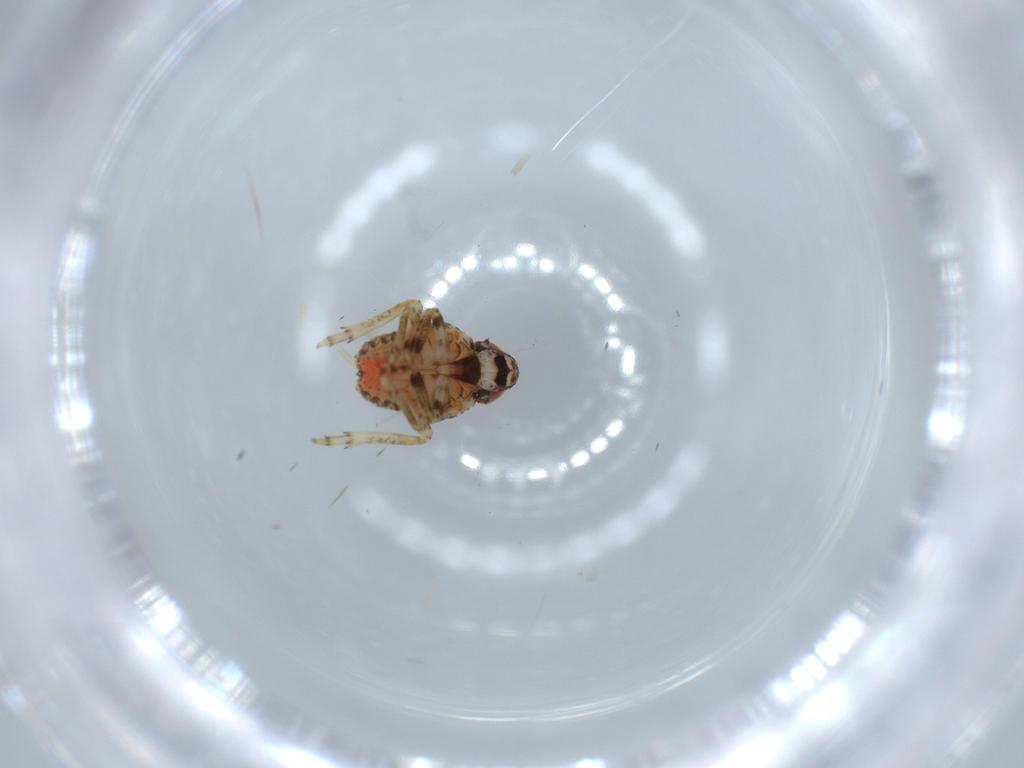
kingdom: Animalia
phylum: Arthropoda
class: Insecta
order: Hemiptera
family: Issidae
